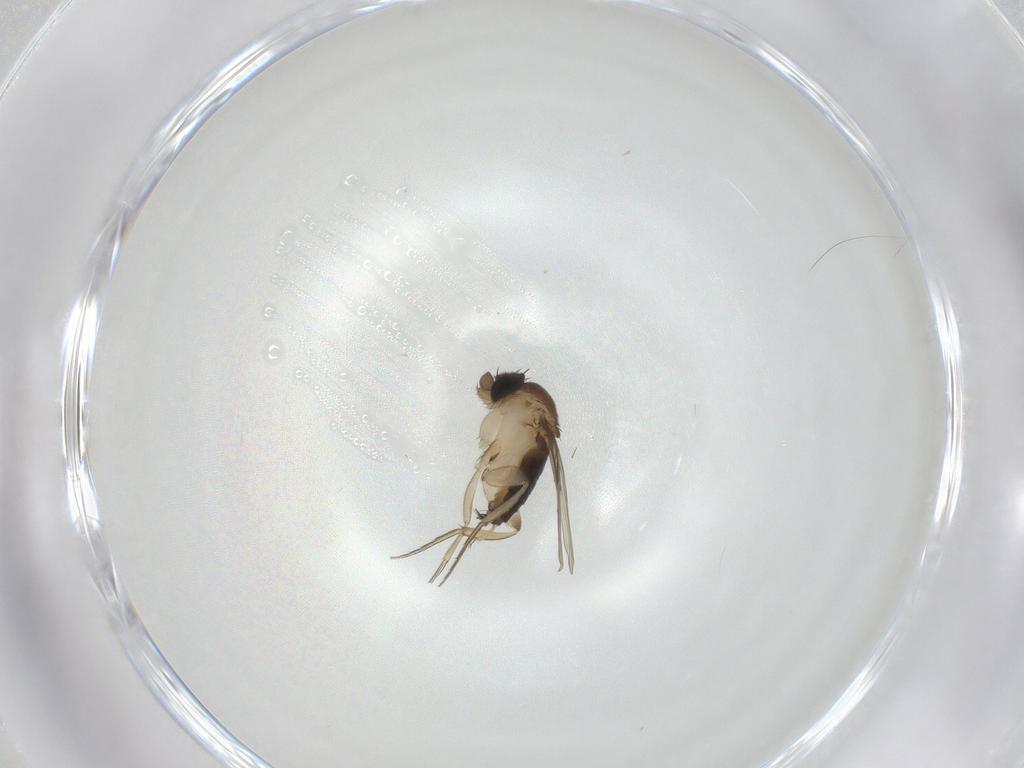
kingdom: Animalia
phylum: Arthropoda
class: Insecta
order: Diptera
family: Phoridae
